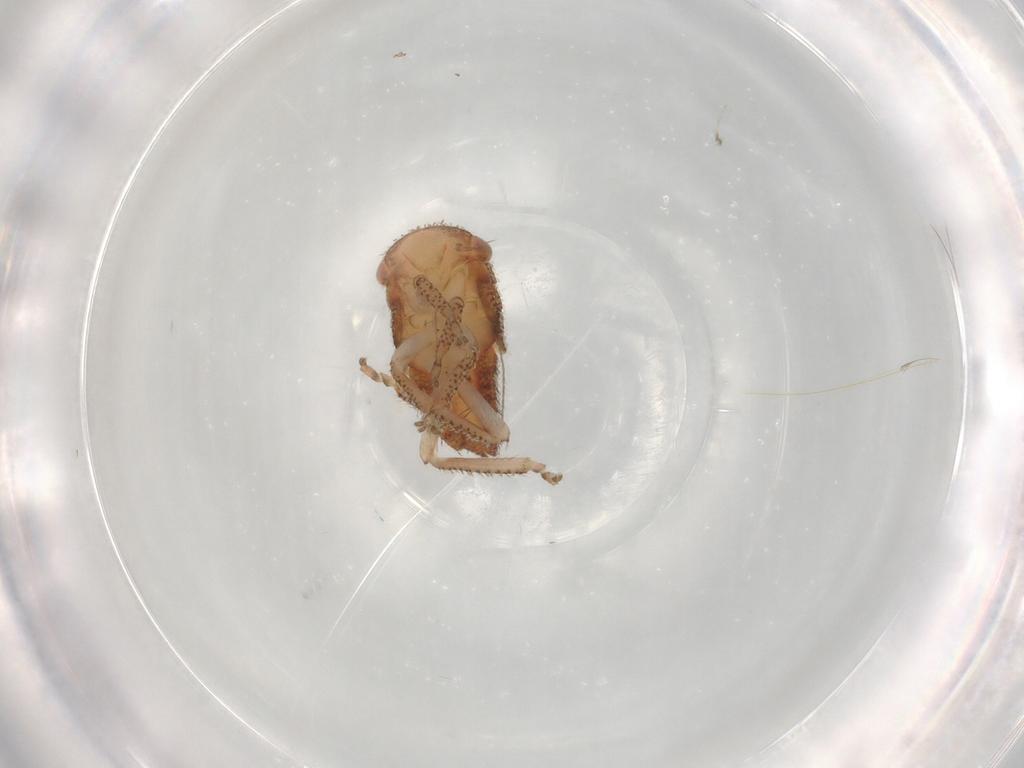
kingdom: Animalia
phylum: Arthropoda
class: Insecta
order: Hemiptera
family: Cicadellidae
